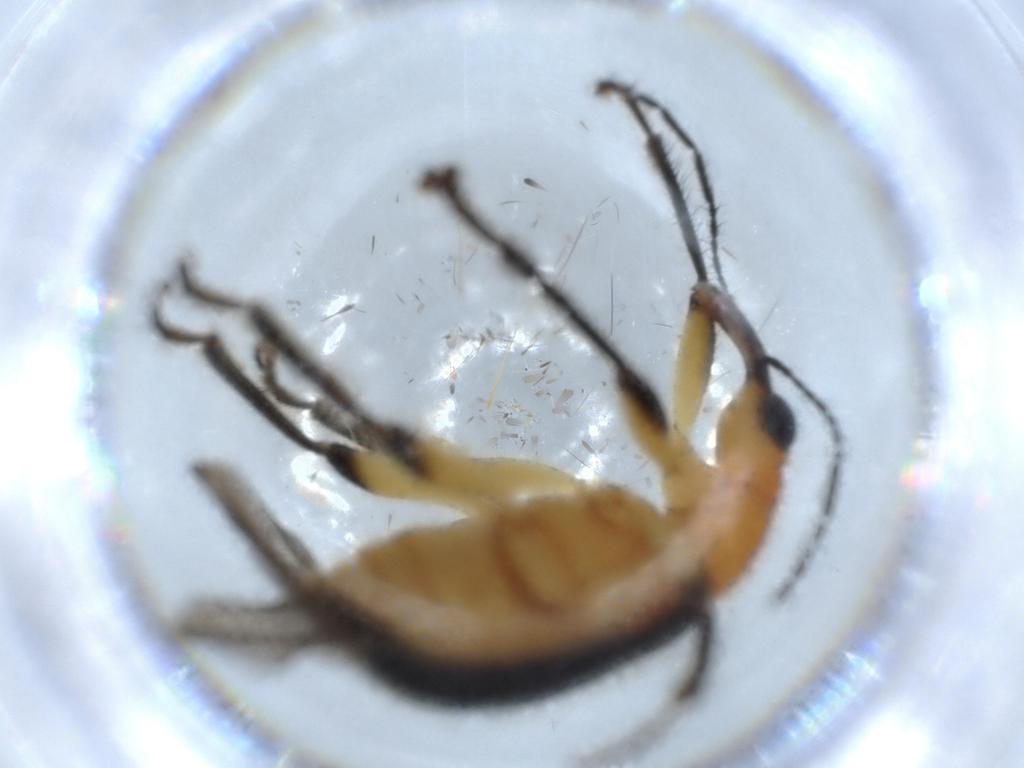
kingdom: Animalia
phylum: Arthropoda
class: Insecta
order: Coleoptera
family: Attelabidae
